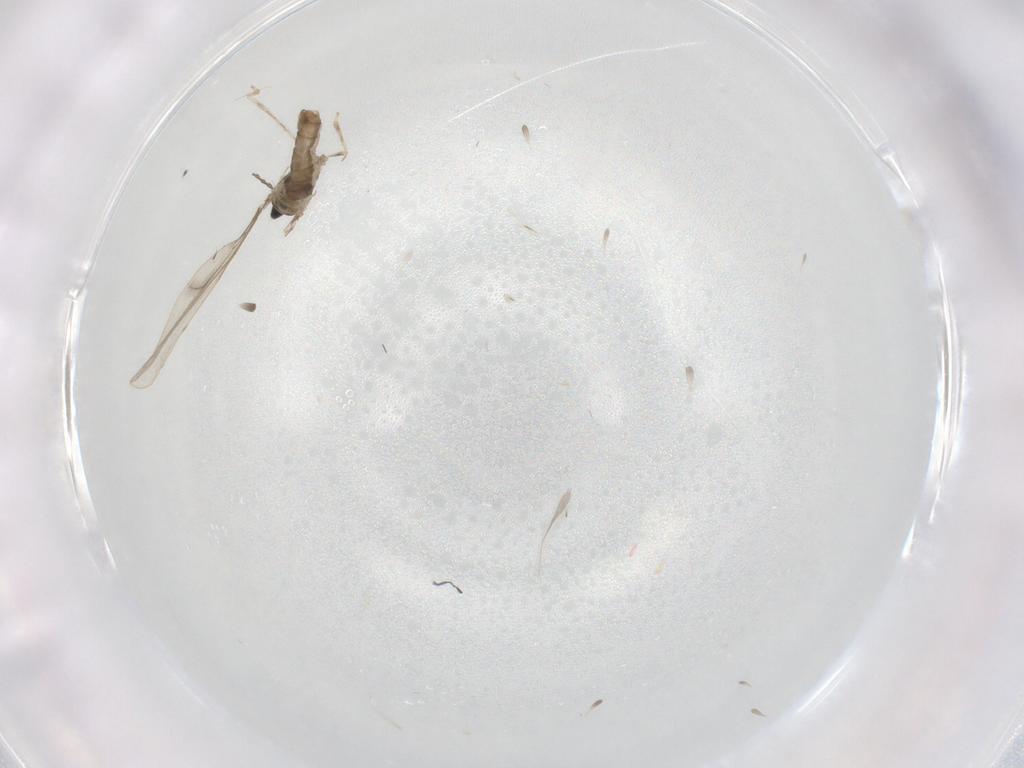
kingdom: Animalia
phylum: Arthropoda
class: Insecta
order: Diptera
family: Cecidomyiidae
